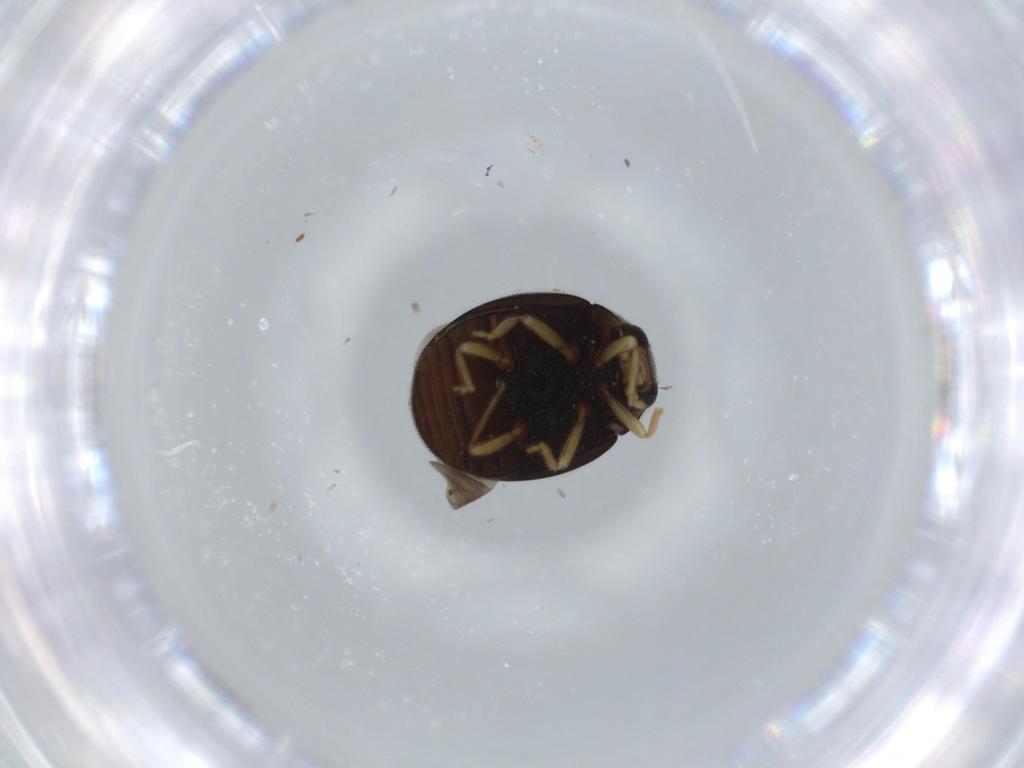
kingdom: Animalia
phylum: Arthropoda
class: Insecta
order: Coleoptera
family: Coccinellidae
